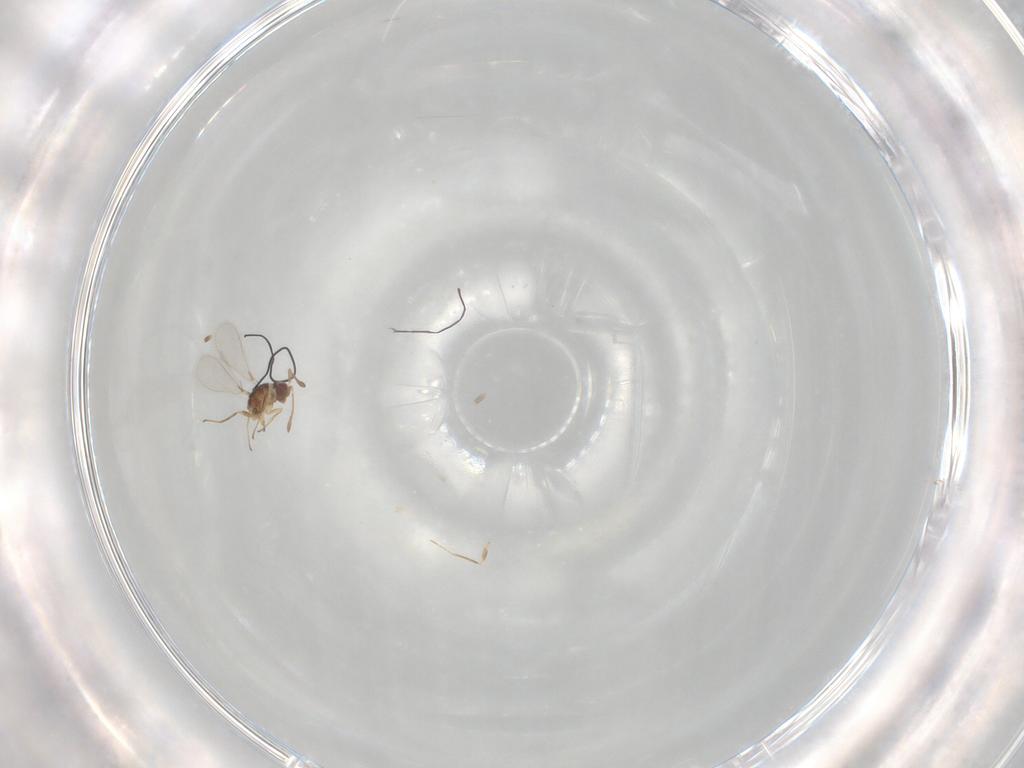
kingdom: Animalia
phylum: Arthropoda
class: Insecta
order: Hymenoptera
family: Mymaridae
